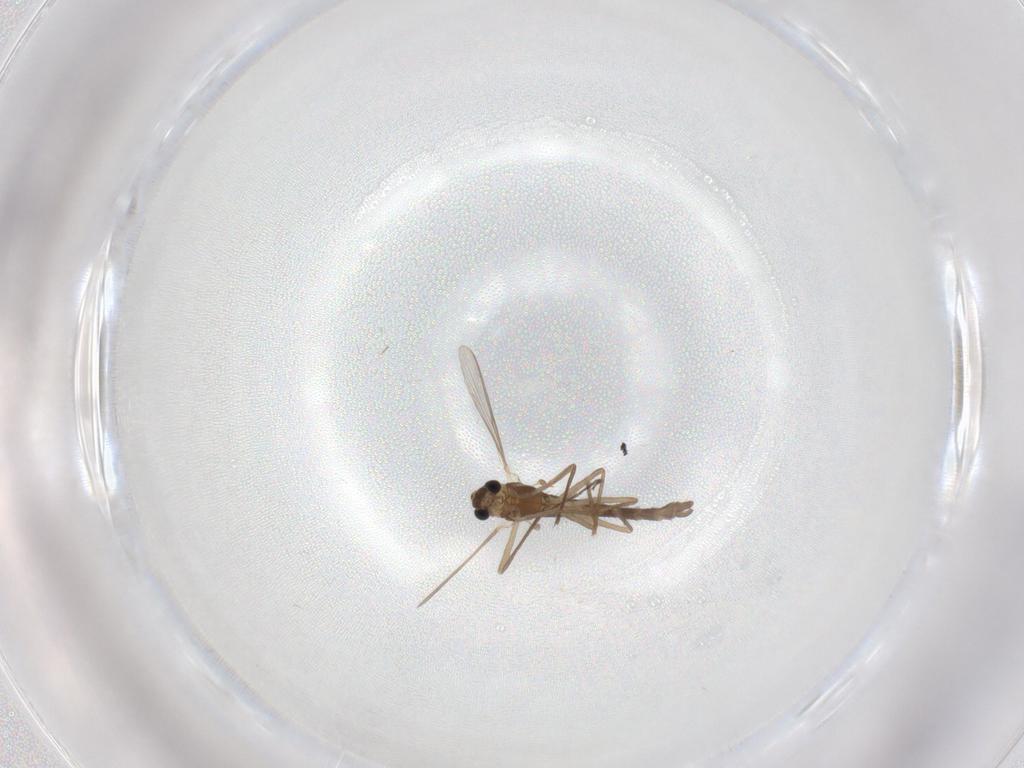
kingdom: Animalia
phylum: Arthropoda
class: Insecta
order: Diptera
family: Chironomidae
